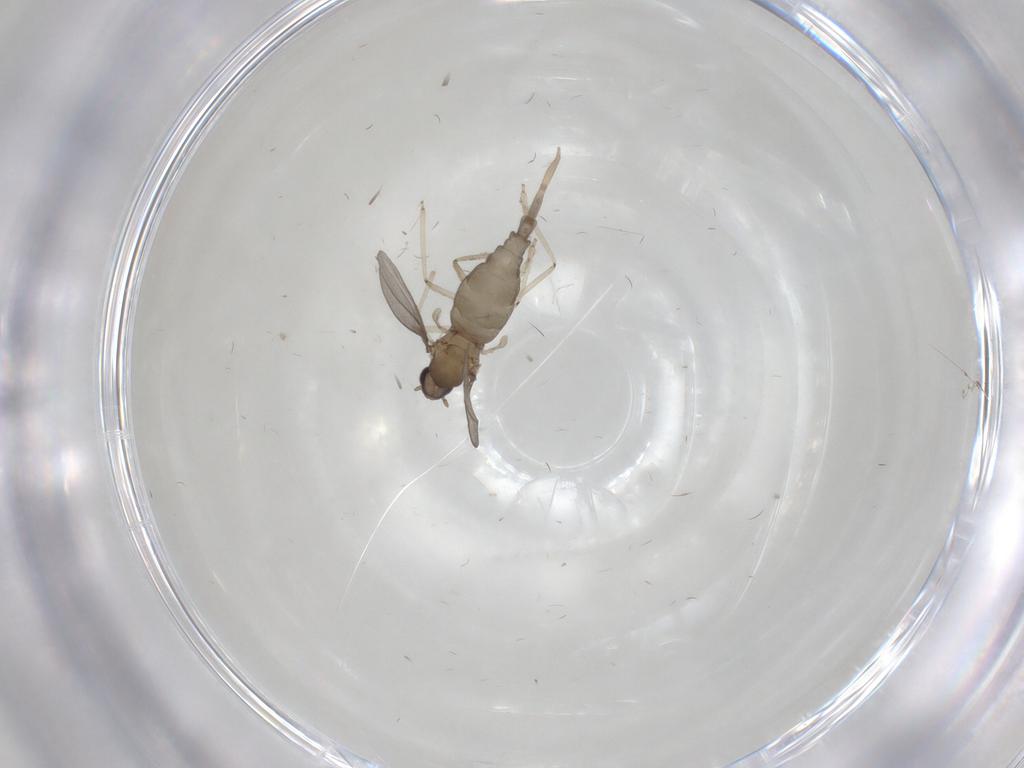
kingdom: Animalia
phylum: Arthropoda
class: Insecta
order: Diptera
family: Cecidomyiidae
